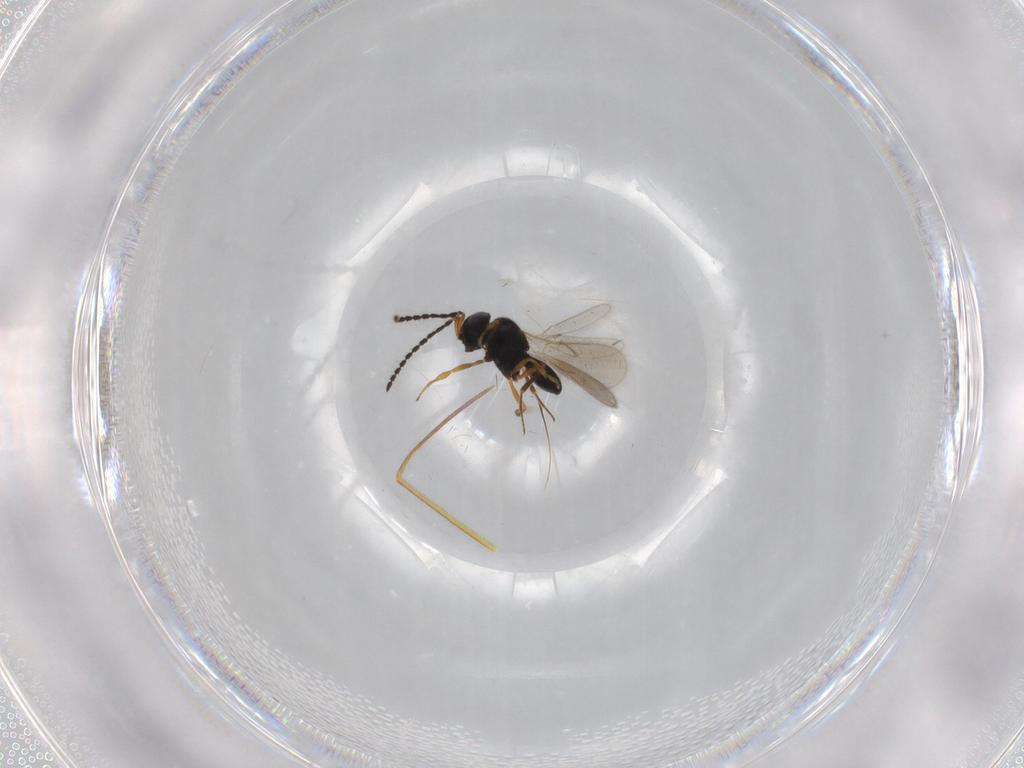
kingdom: Animalia
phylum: Arthropoda
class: Insecta
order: Hymenoptera
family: Scelionidae
